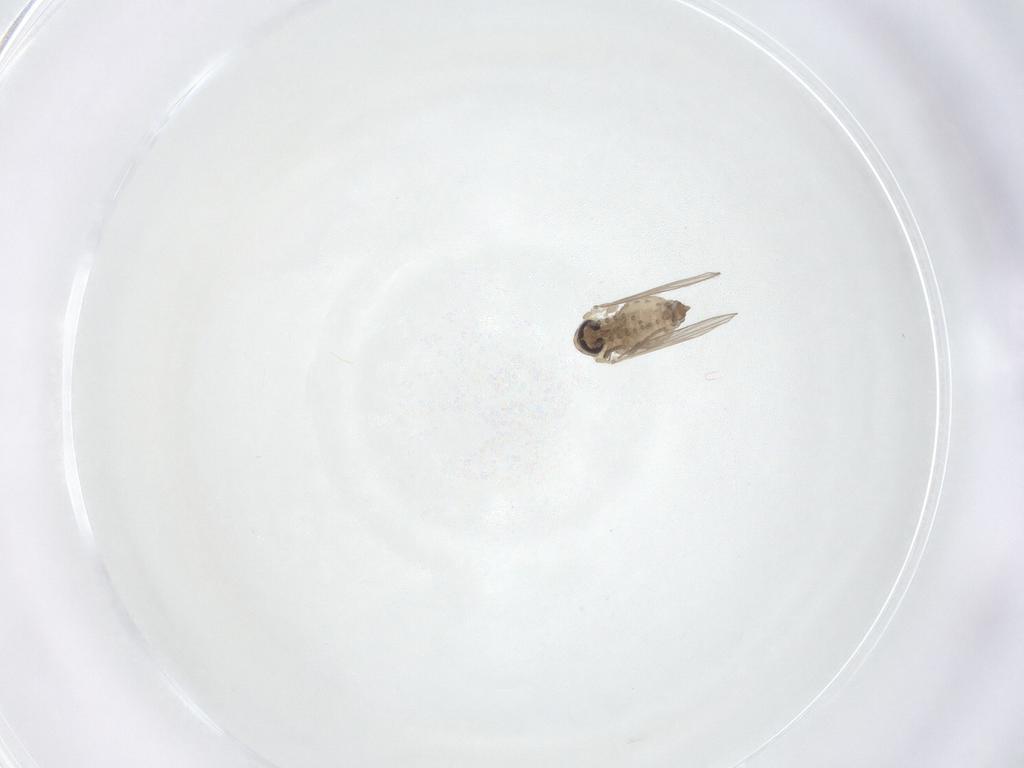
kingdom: Animalia
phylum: Arthropoda
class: Insecta
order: Diptera
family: Psychodidae
